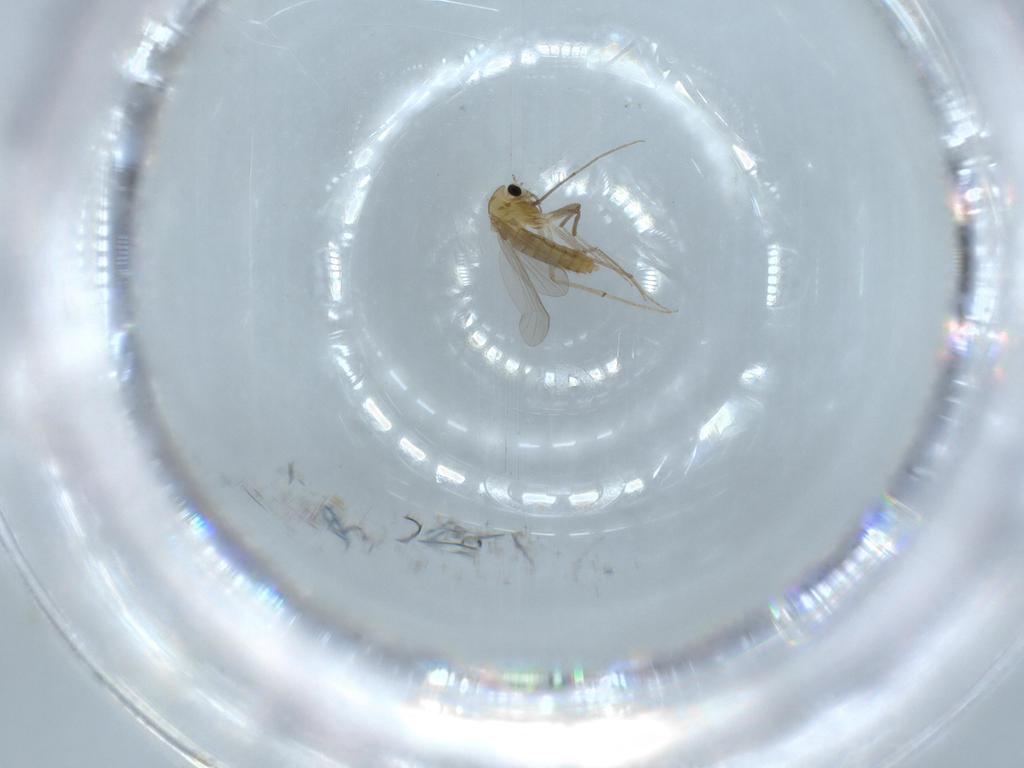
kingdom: Animalia
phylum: Arthropoda
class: Insecta
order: Diptera
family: Chironomidae
